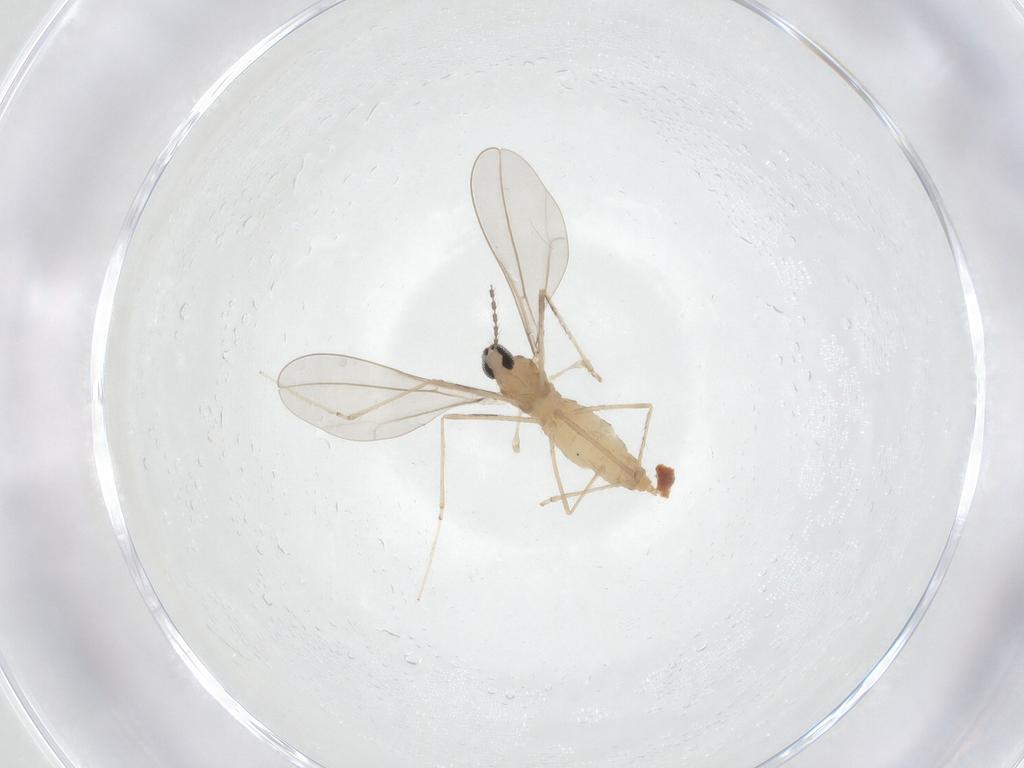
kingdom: Animalia
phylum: Arthropoda
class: Insecta
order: Diptera
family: Cecidomyiidae
